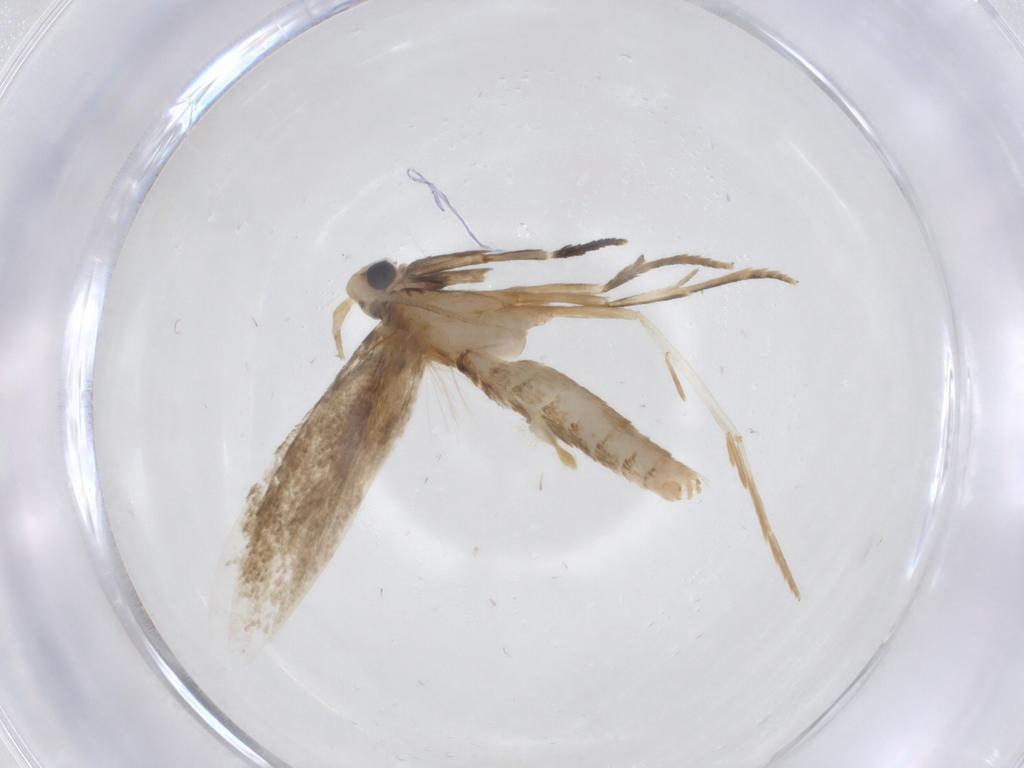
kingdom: Animalia
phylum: Arthropoda
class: Insecta
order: Lepidoptera
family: Tineidae
